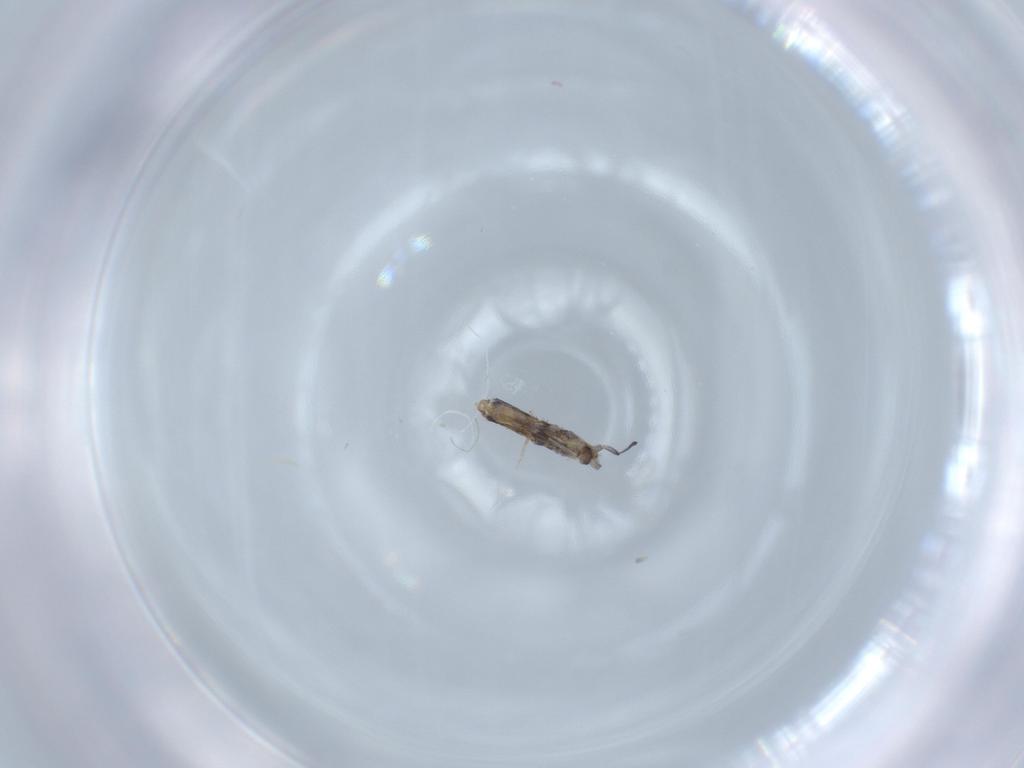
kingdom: Animalia
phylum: Arthropoda
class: Collembola
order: Poduromorpha
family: Hypogastruridae
